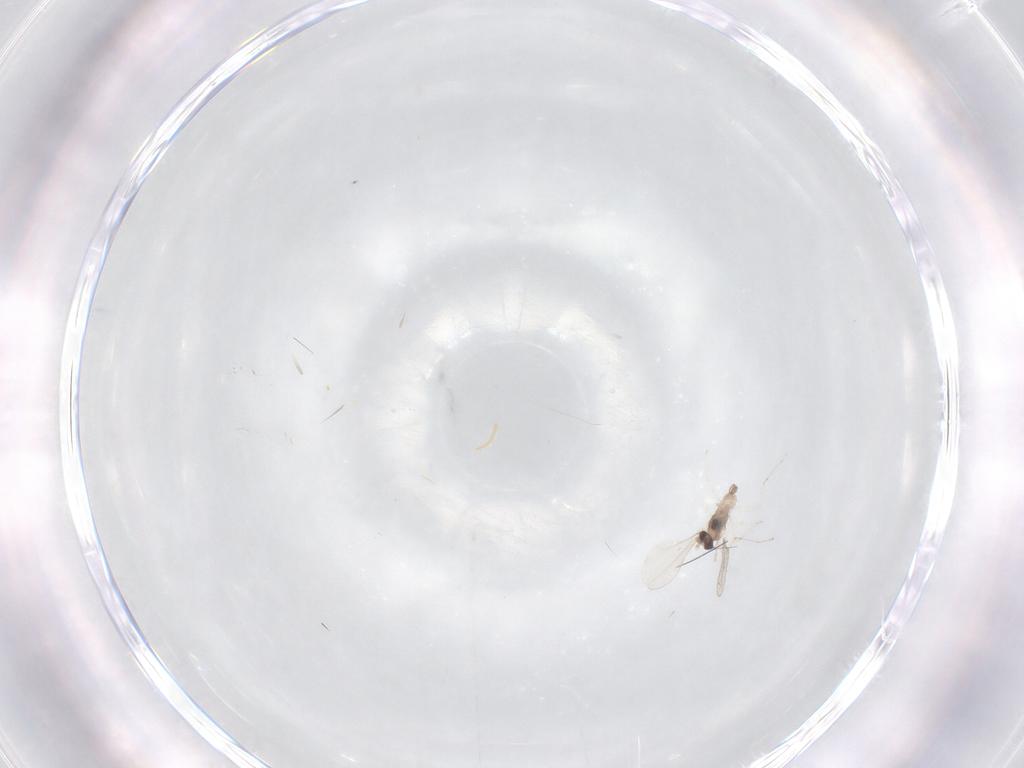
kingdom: Animalia
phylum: Arthropoda
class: Insecta
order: Diptera
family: Cecidomyiidae
